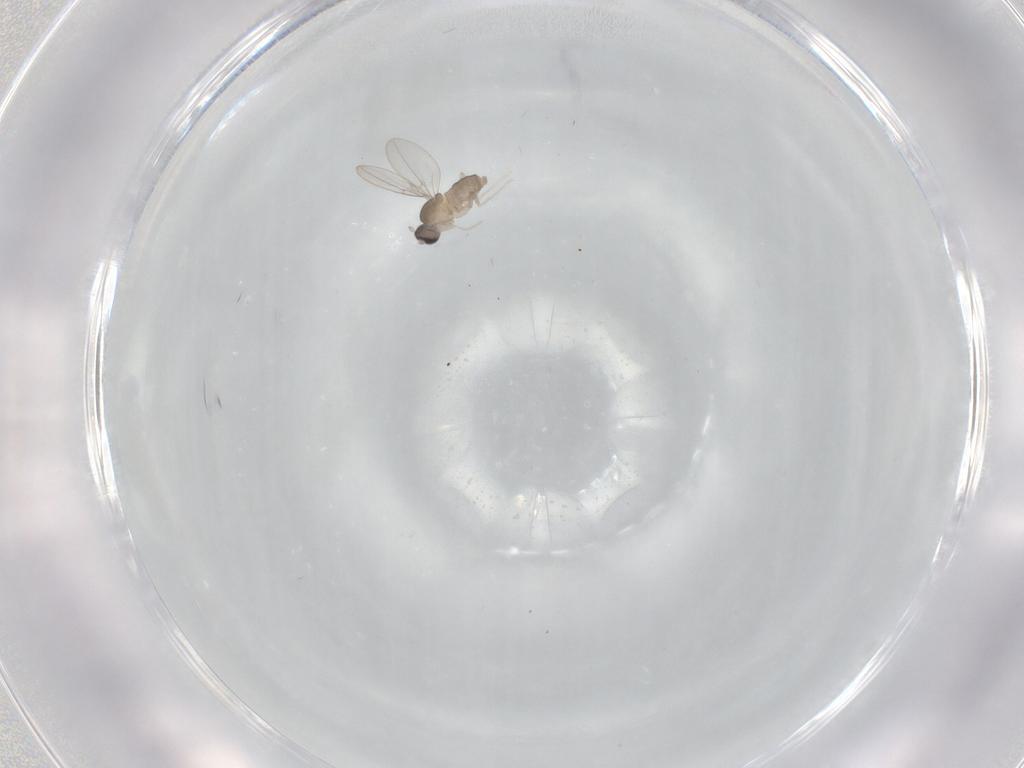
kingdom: Animalia
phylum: Arthropoda
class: Insecta
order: Diptera
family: Cecidomyiidae
